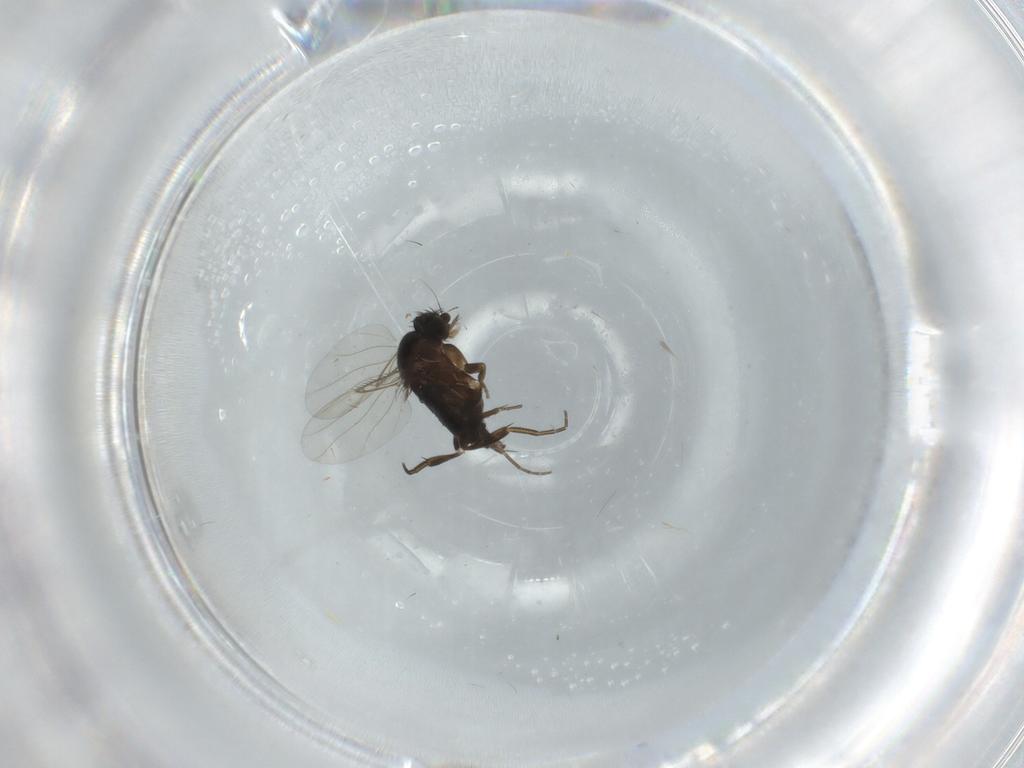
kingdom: Animalia
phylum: Arthropoda
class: Insecta
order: Diptera
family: Phoridae
